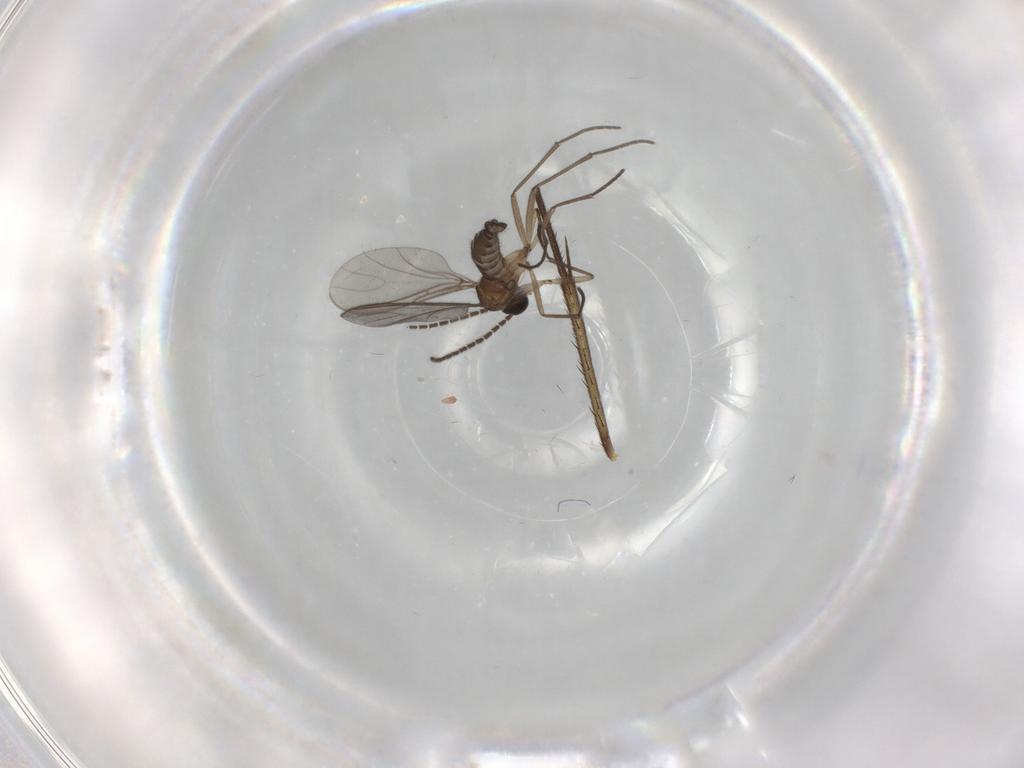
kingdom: Animalia
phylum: Arthropoda
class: Insecta
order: Diptera
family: Sciaridae
